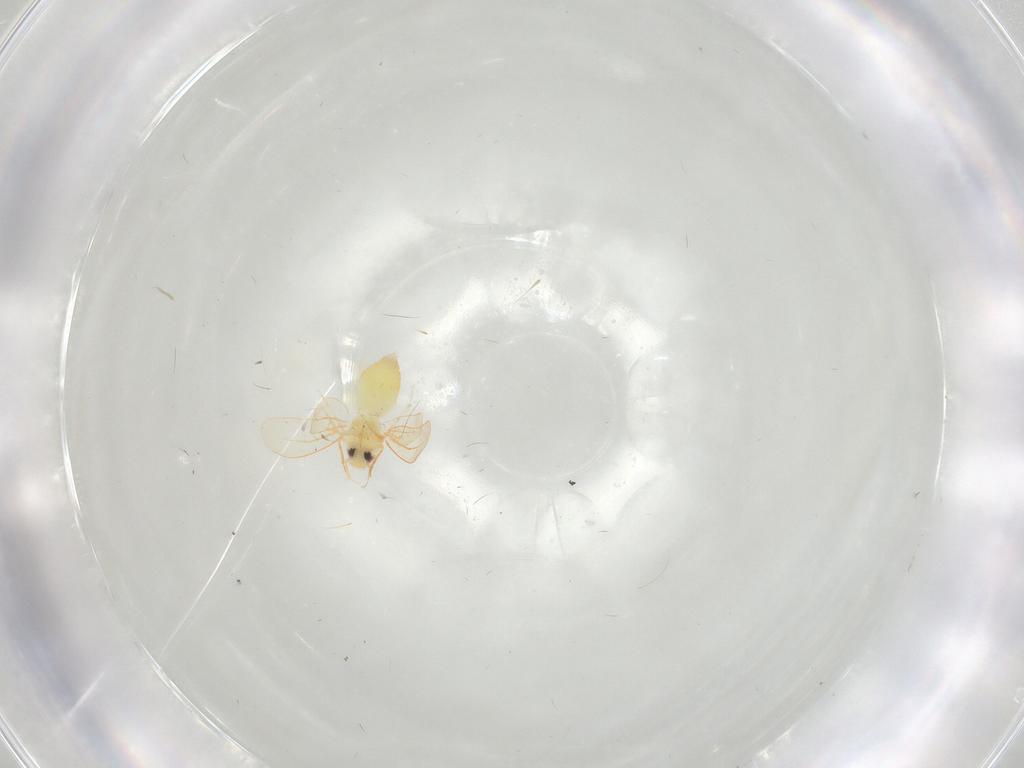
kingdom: Animalia
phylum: Arthropoda
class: Insecta
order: Hemiptera
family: Aleyrodidae
